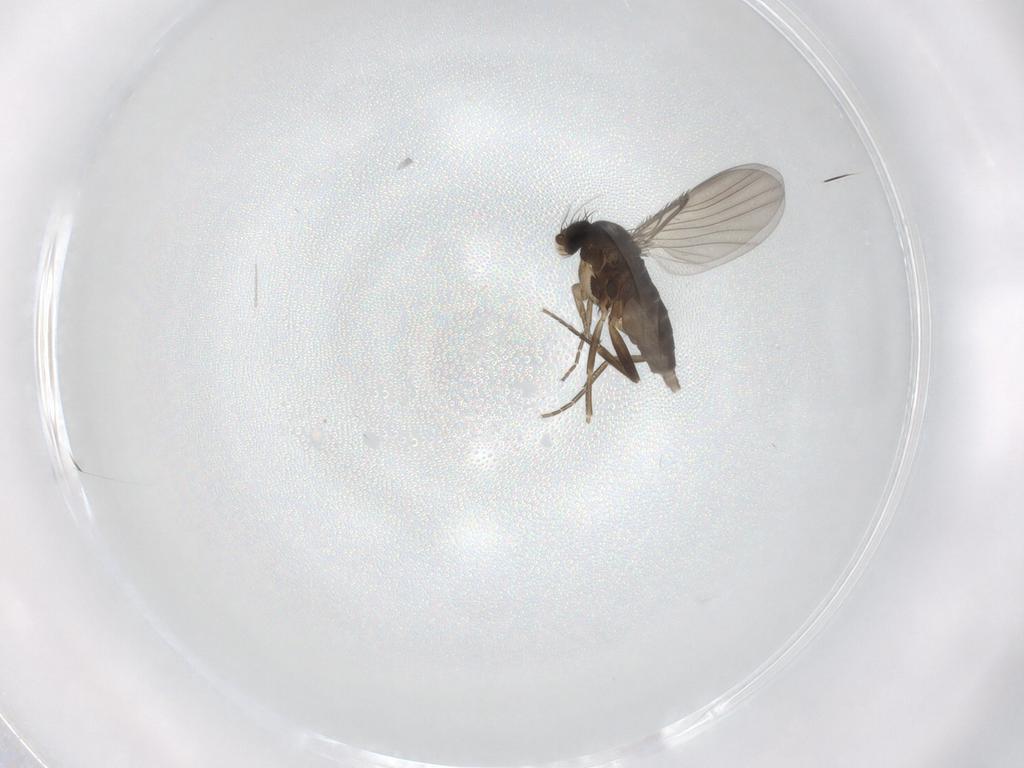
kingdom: Animalia
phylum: Arthropoda
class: Insecta
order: Diptera
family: Phoridae
